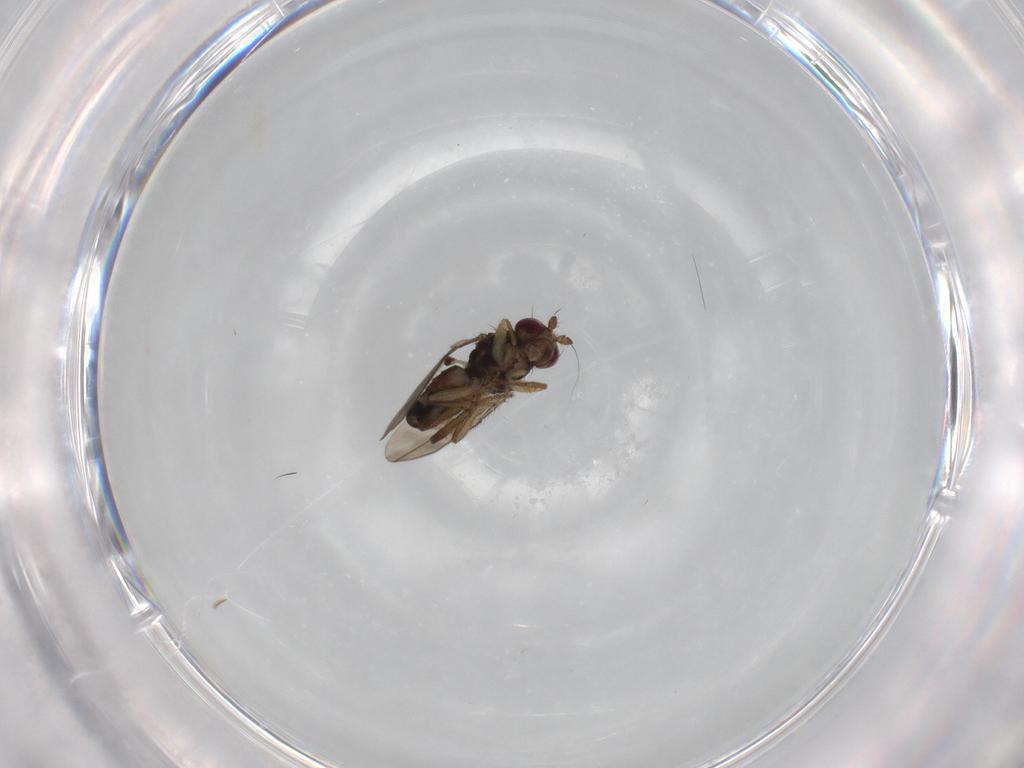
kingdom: Animalia
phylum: Arthropoda
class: Insecta
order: Diptera
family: Sphaeroceridae
